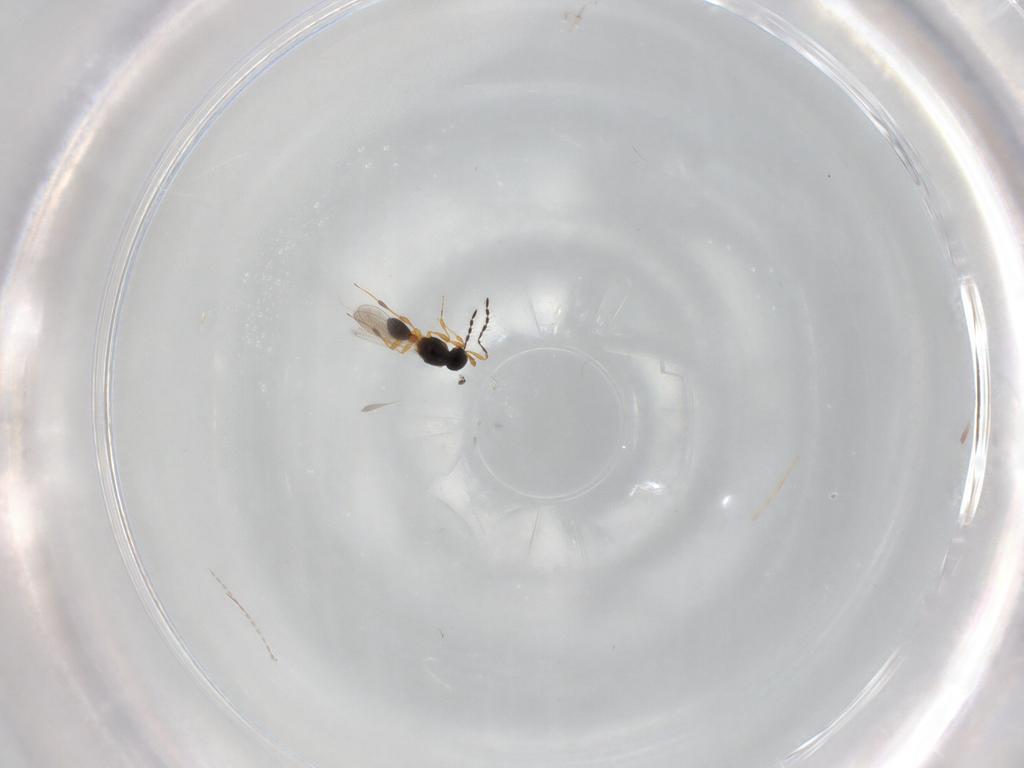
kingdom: Animalia
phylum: Arthropoda
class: Insecta
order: Hymenoptera
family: Platygastridae
